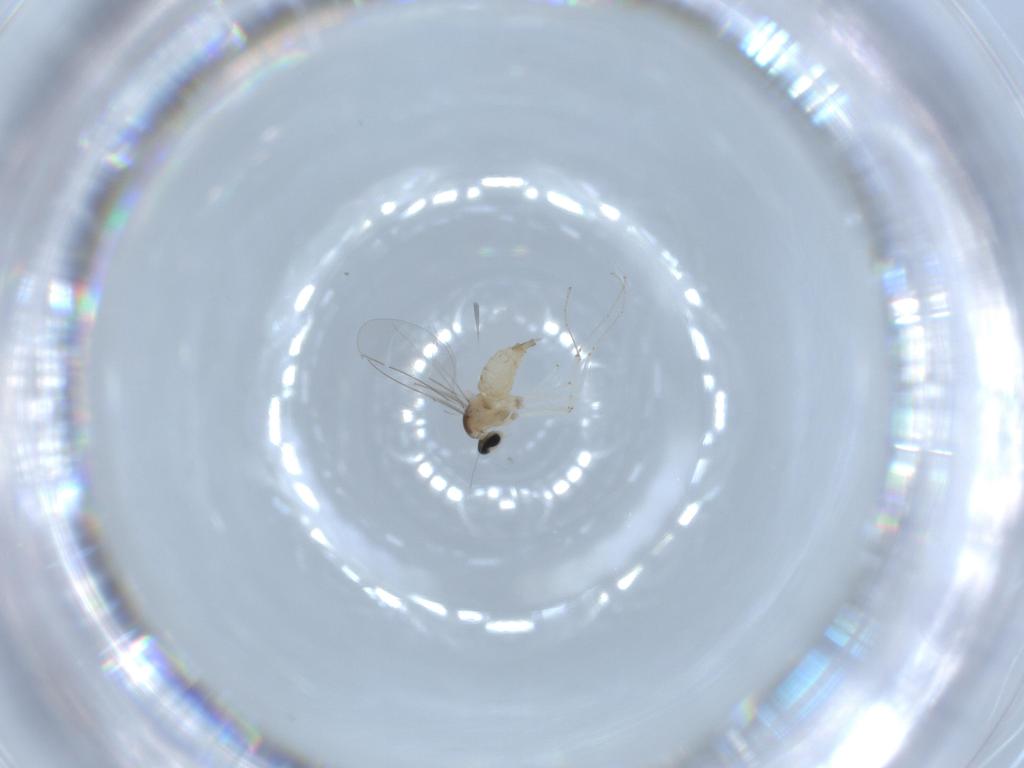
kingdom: Animalia
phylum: Arthropoda
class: Insecta
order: Diptera
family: Cecidomyiidae
